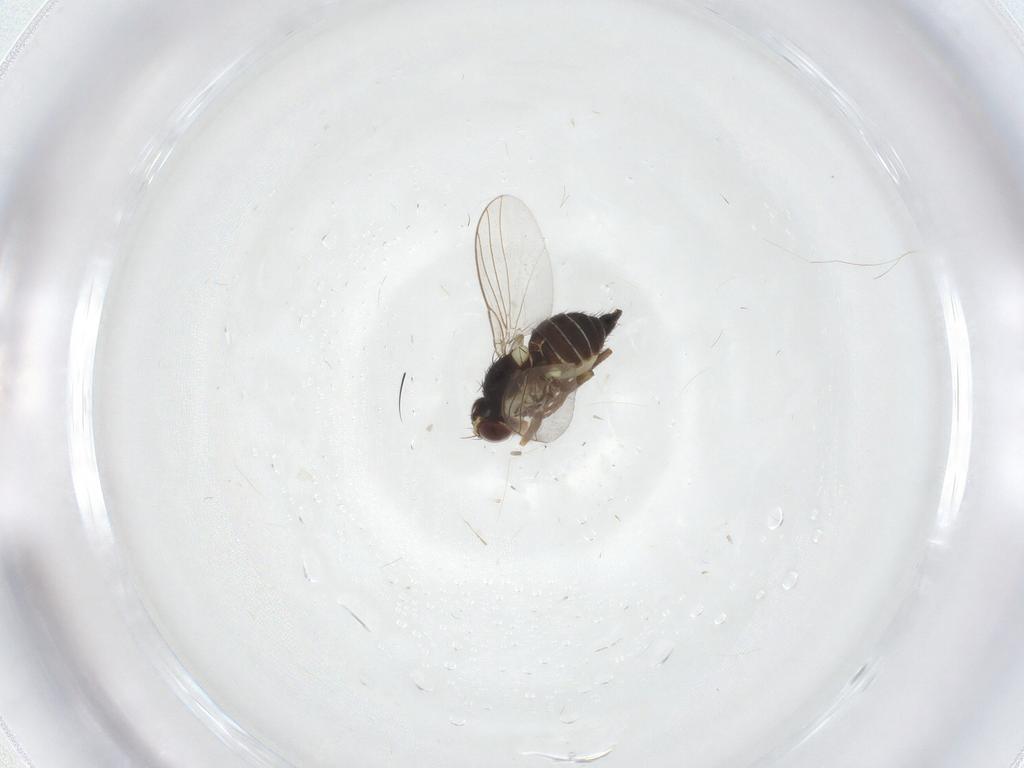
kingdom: Animalia
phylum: Arthropoda
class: Insecta
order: Diptera
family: Agromyzidae
